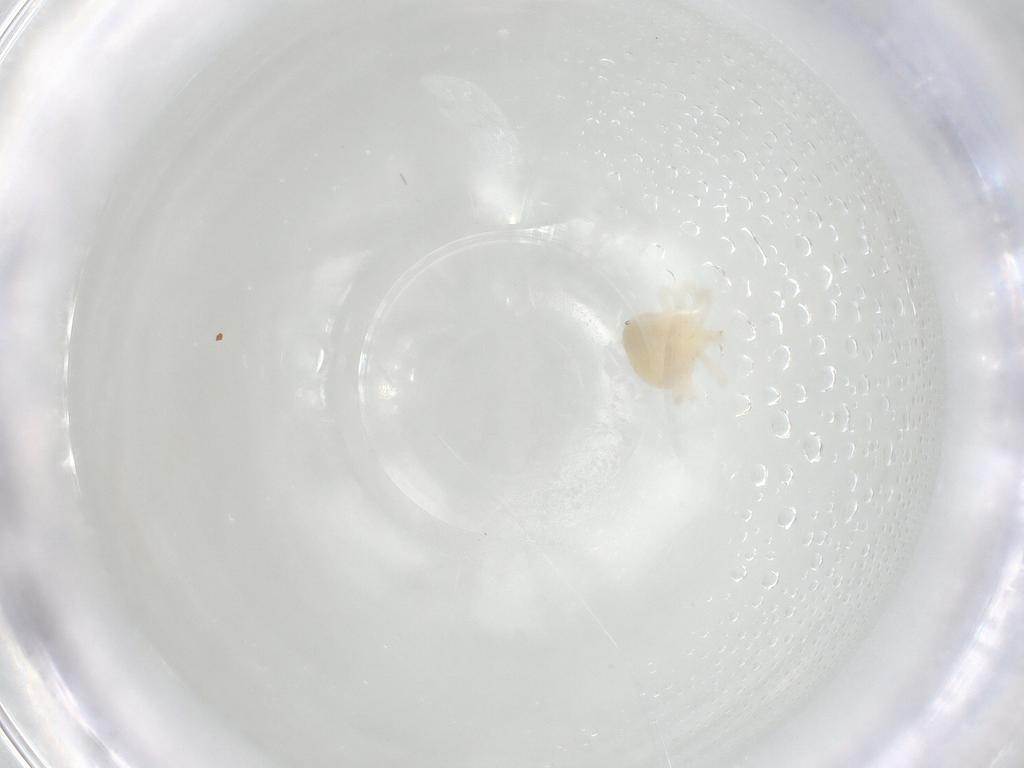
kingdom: Animalia
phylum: Arthropoda
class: Arachnida
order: Trombidiformes
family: Anystidae
